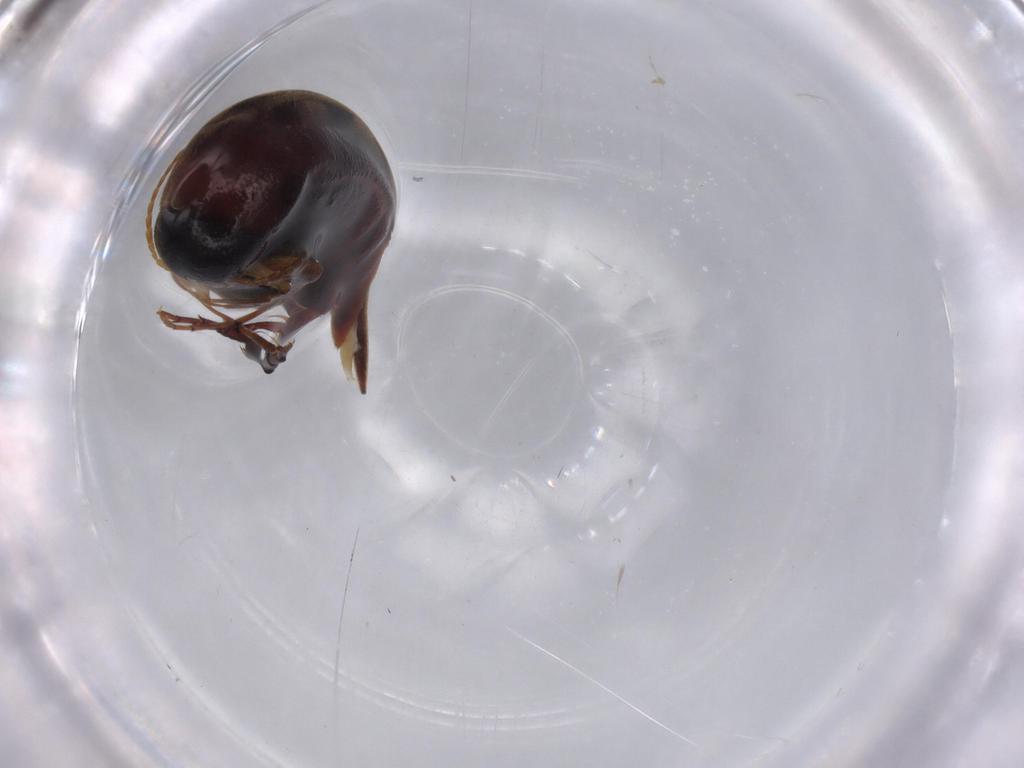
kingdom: Animalia
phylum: Arthropoda
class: Insecta
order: Coleoptera
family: Mordellidae
